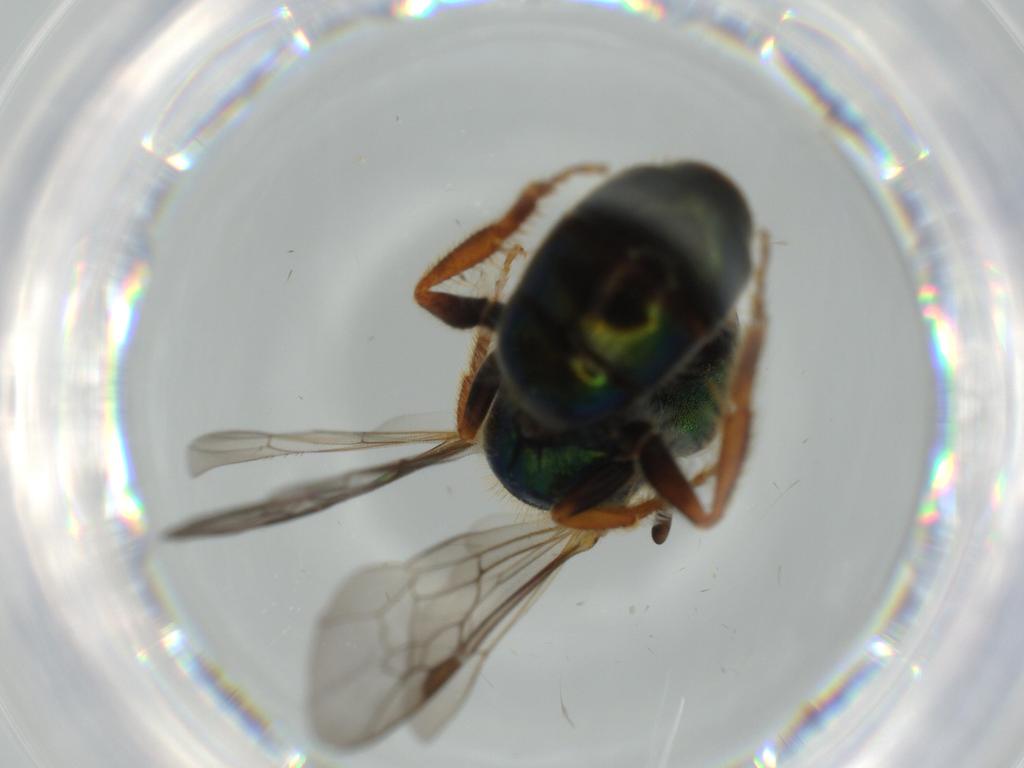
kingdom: Animalia
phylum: Arthropoda
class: Insecta
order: Hymenoptera
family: Halictidae
